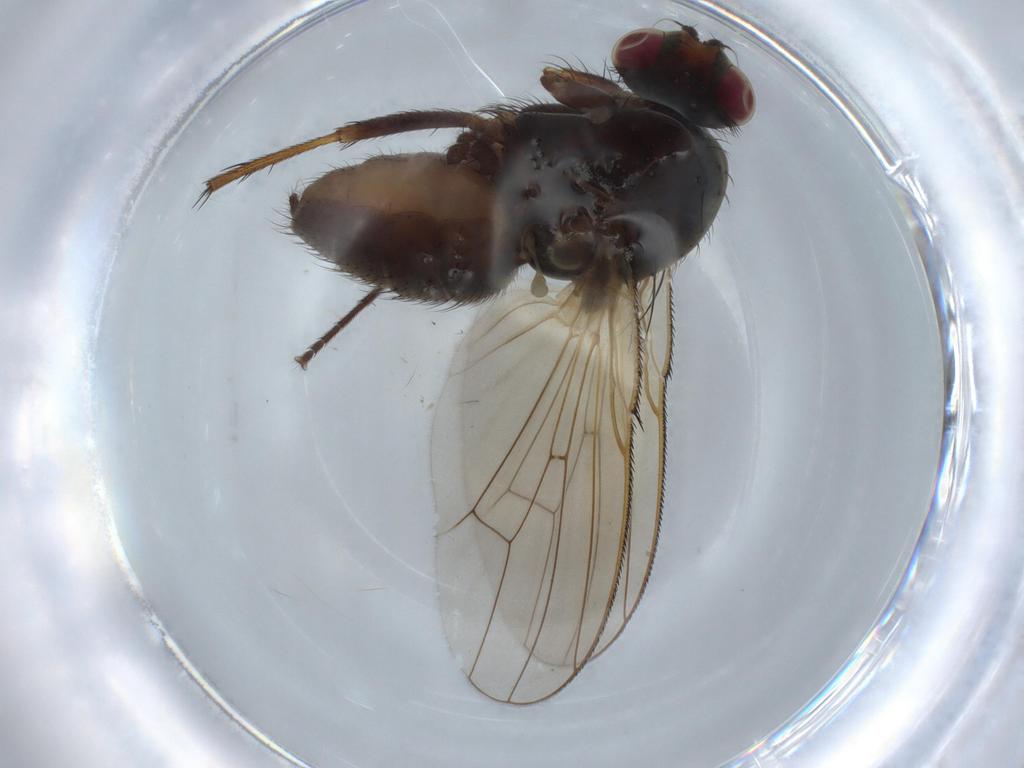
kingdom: Animalia
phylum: Arthropoda
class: Insecta
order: Diptera
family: Anthomyiidae
